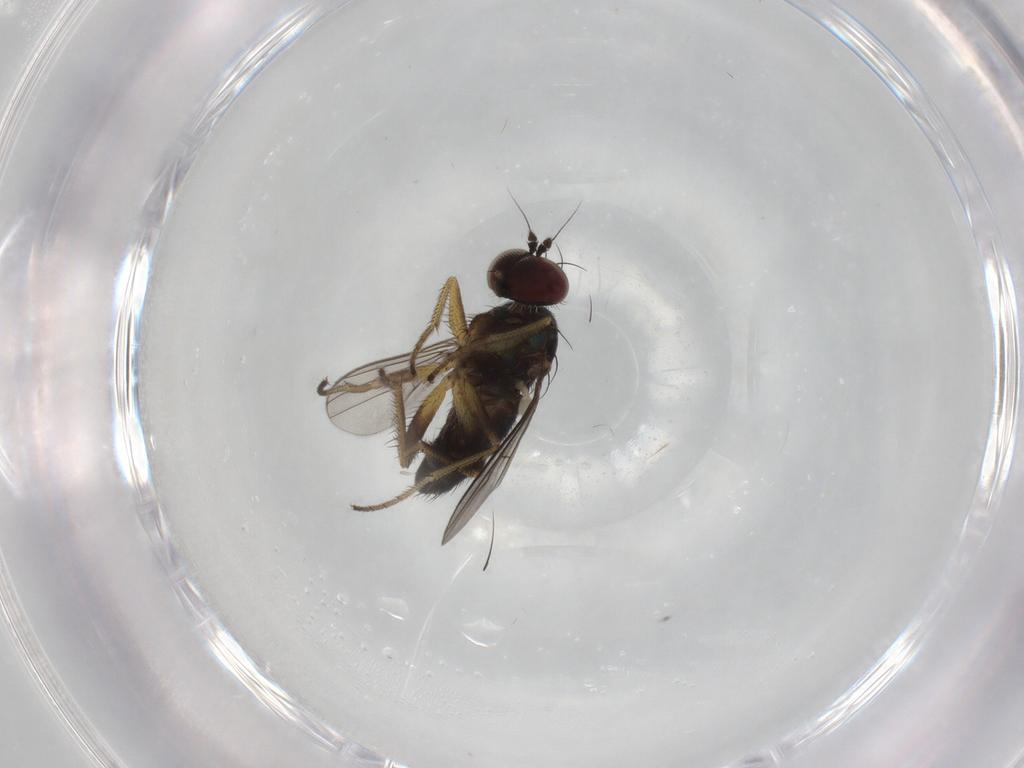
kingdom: Animalia
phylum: Arthropoda
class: Insecta
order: Diptera
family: Dolichopodidae
